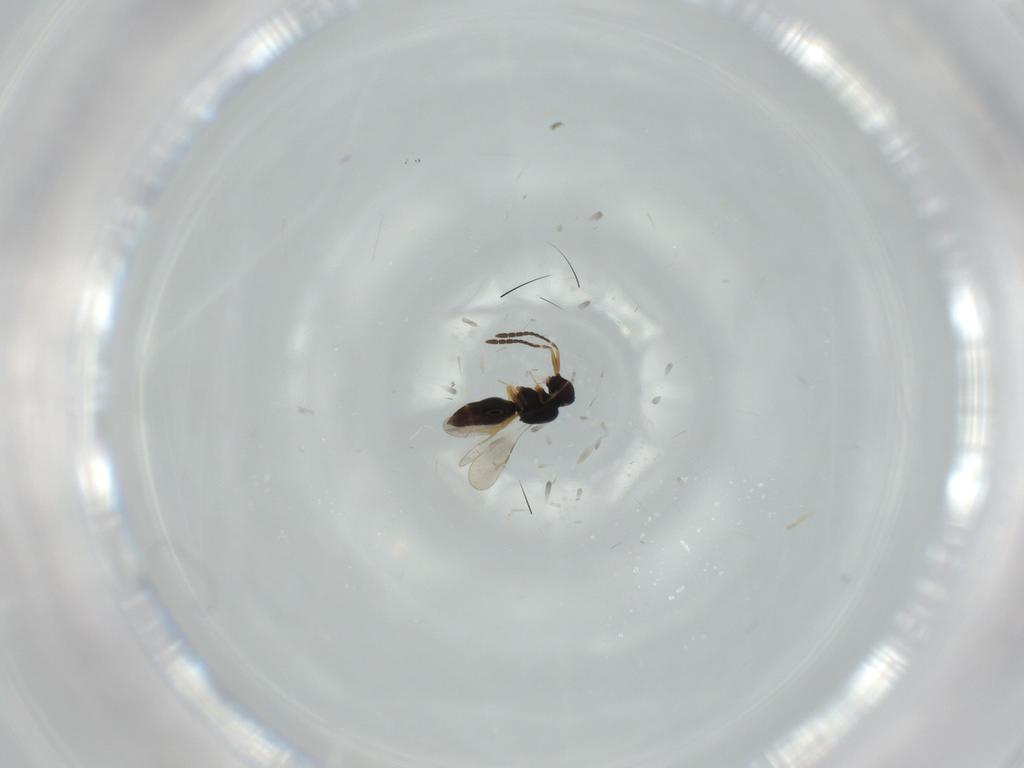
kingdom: Animalia
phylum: Arthropoda
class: Insecta
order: Hymenoptera
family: Ceraphronidae
